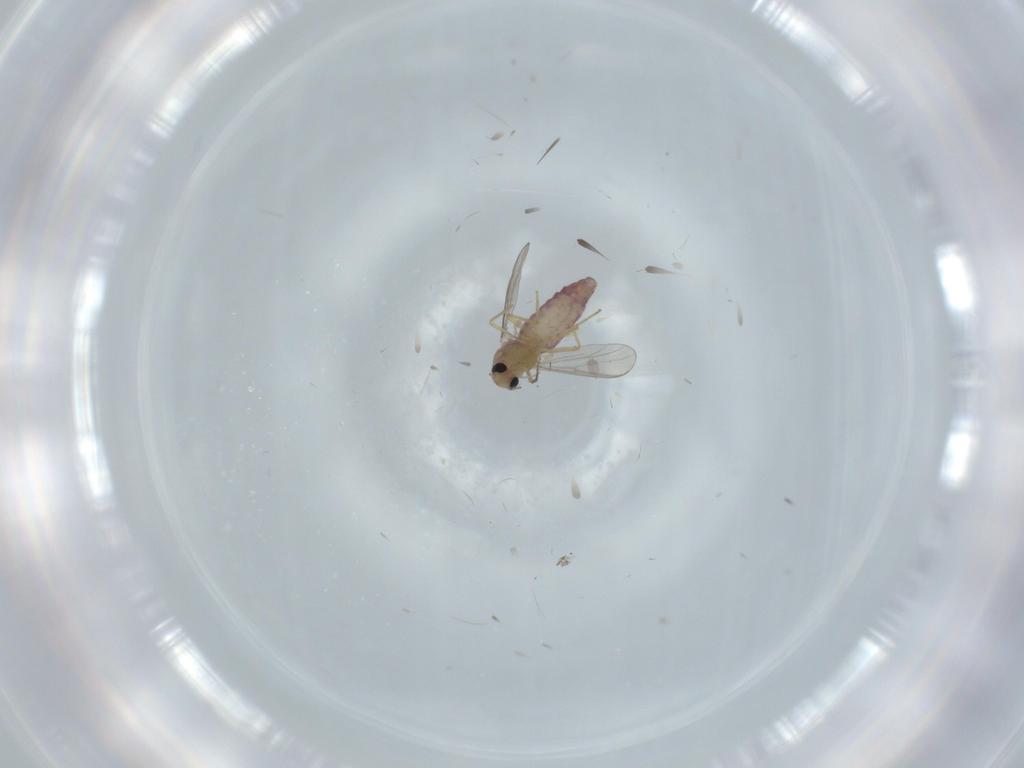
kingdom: Animalia
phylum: Arthropoda
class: Insecta
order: Diptera
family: Chironomidae
